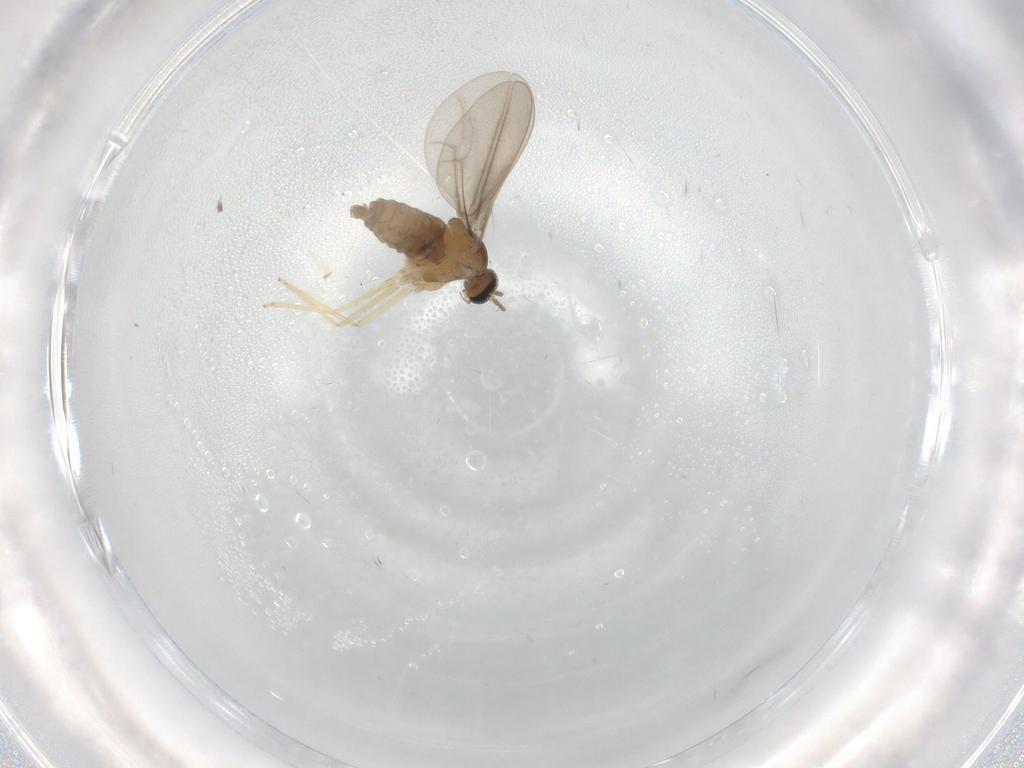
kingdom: Animalia
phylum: Arthropoda
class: Insecta
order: Diptera
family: Cecidomyiidae
